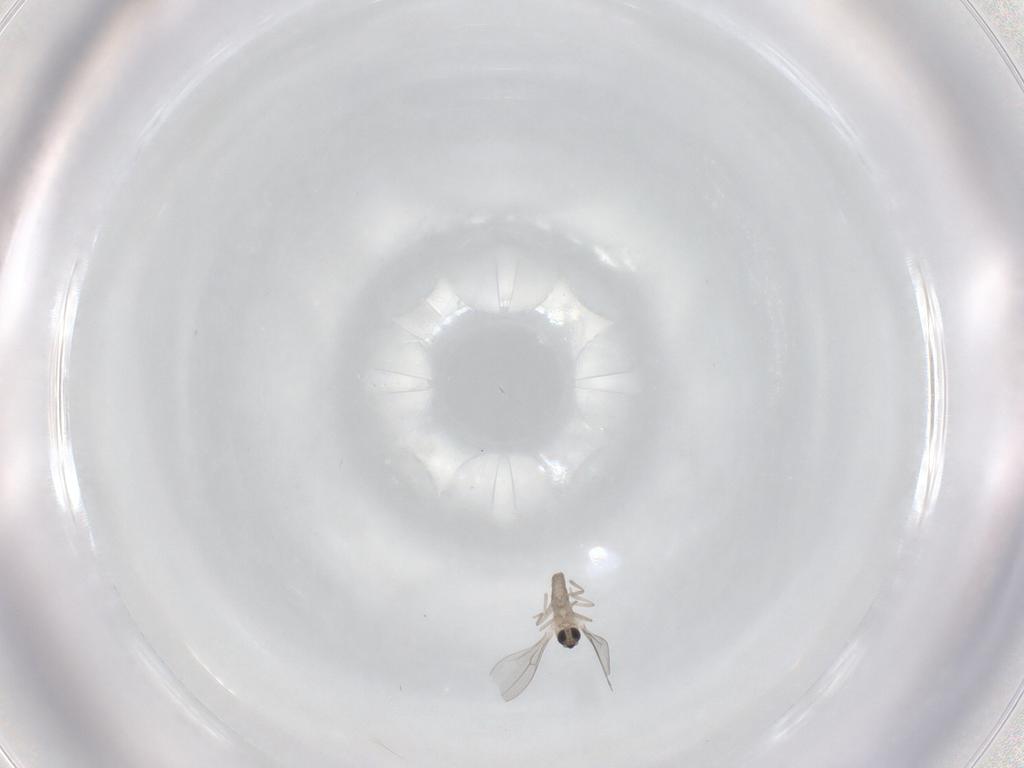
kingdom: Animalia
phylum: Arthropoda
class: Insecta
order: Diptera
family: Cecidomyiidae
